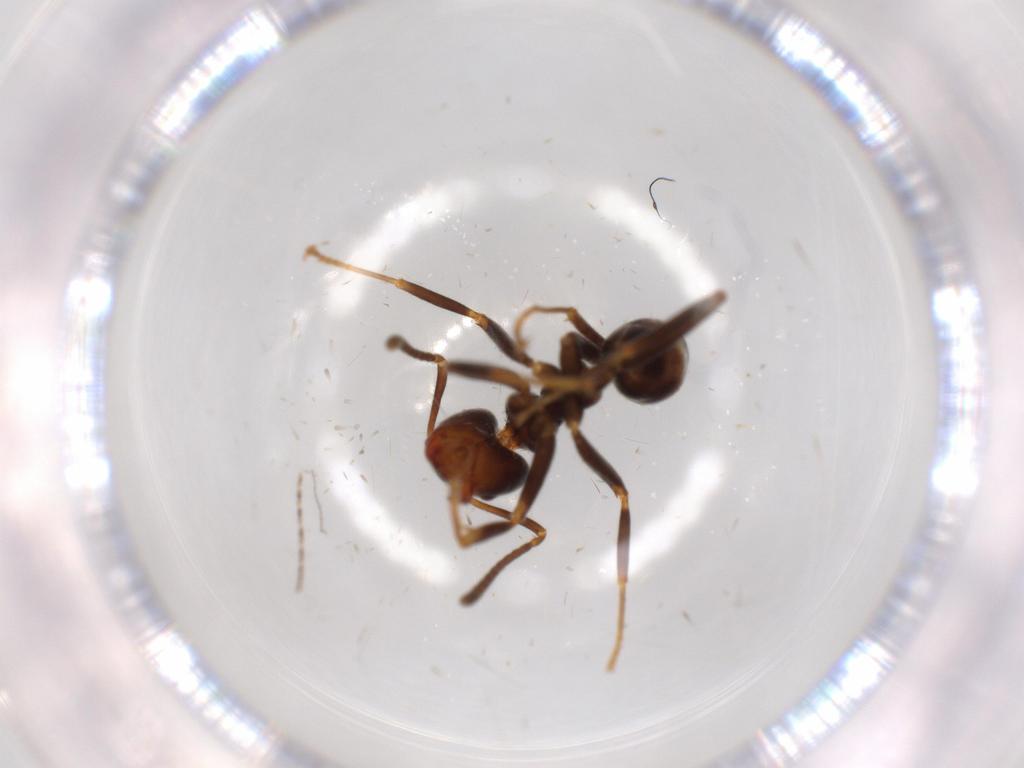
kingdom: Animalia
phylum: Arthropoda
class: Insecta
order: Hymenoptera
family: Formicidae
